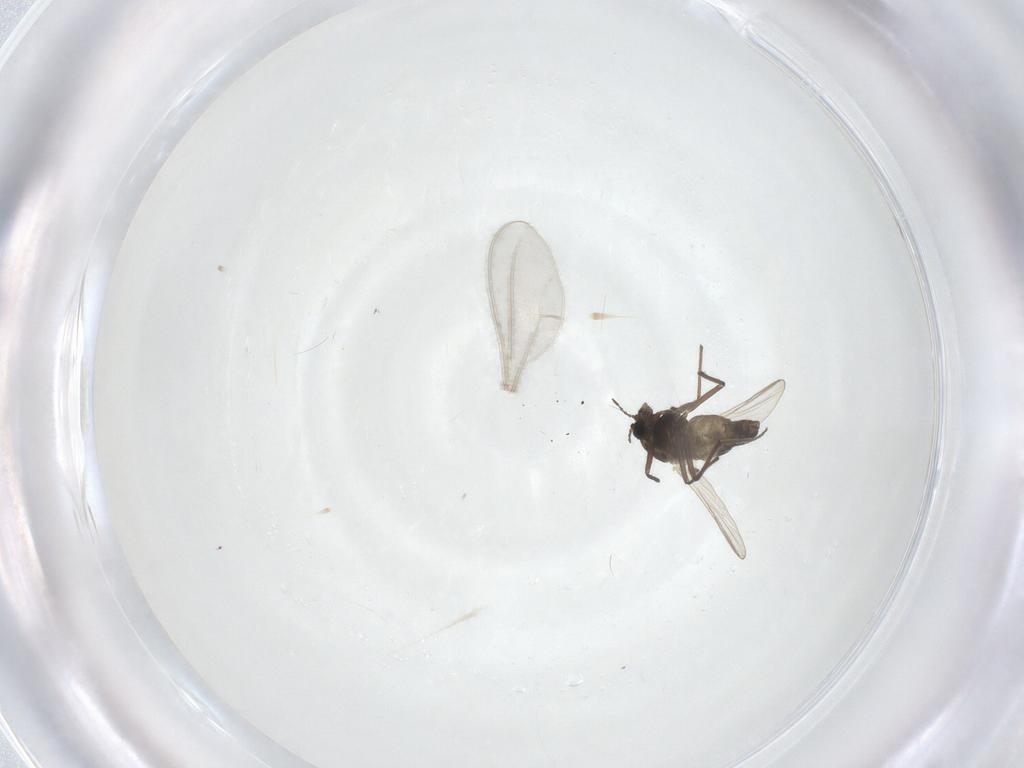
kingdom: Animalia
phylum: Arthropoda
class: Insecta
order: Diptera
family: Chironomidae
